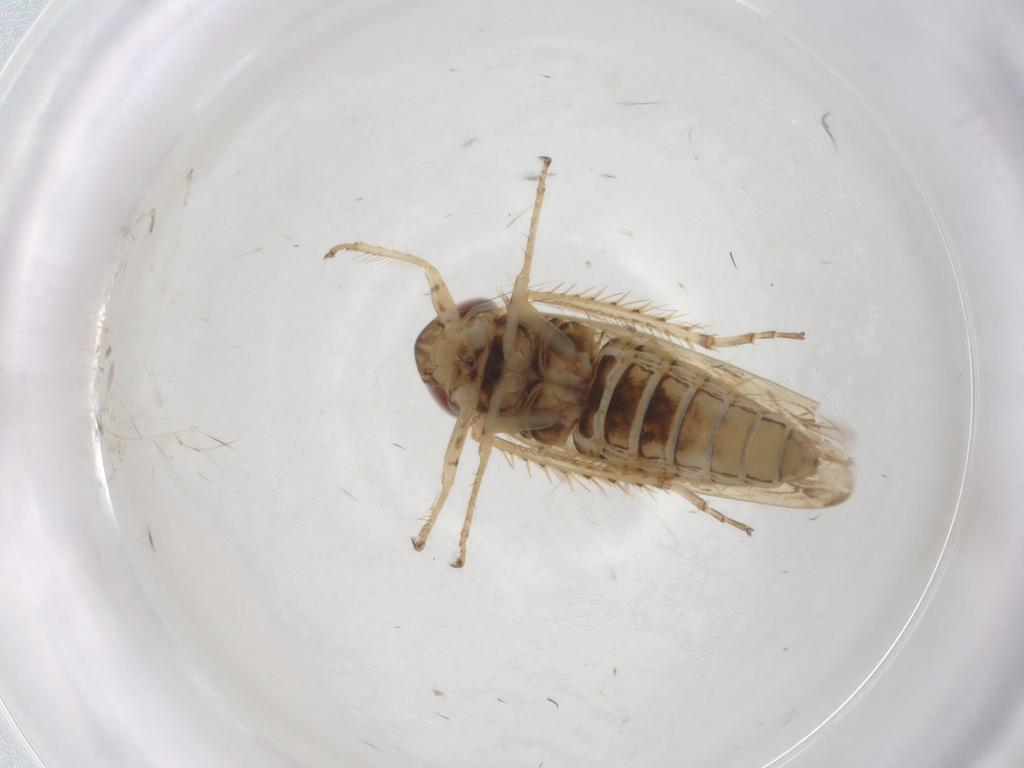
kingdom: Animalia
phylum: Arthropoda
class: Insecta
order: Hemiptera
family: Cicadellidae
